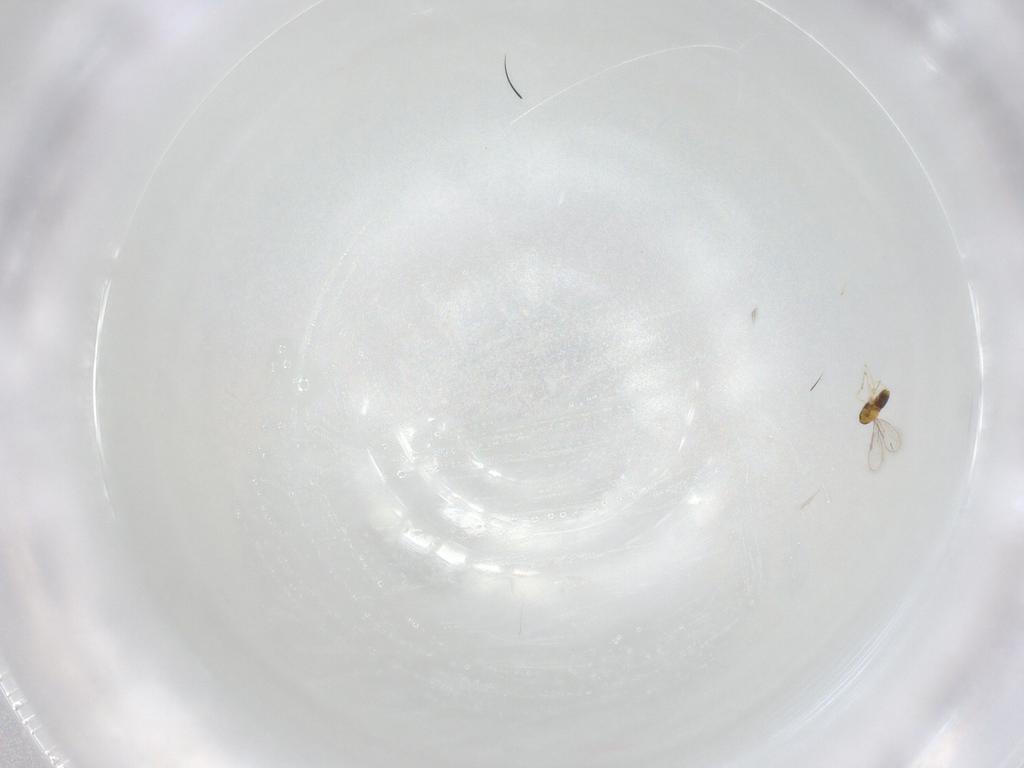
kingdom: Animalia
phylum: Arthropoda
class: Insecta
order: Hymenoptera
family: Aphelinidae
